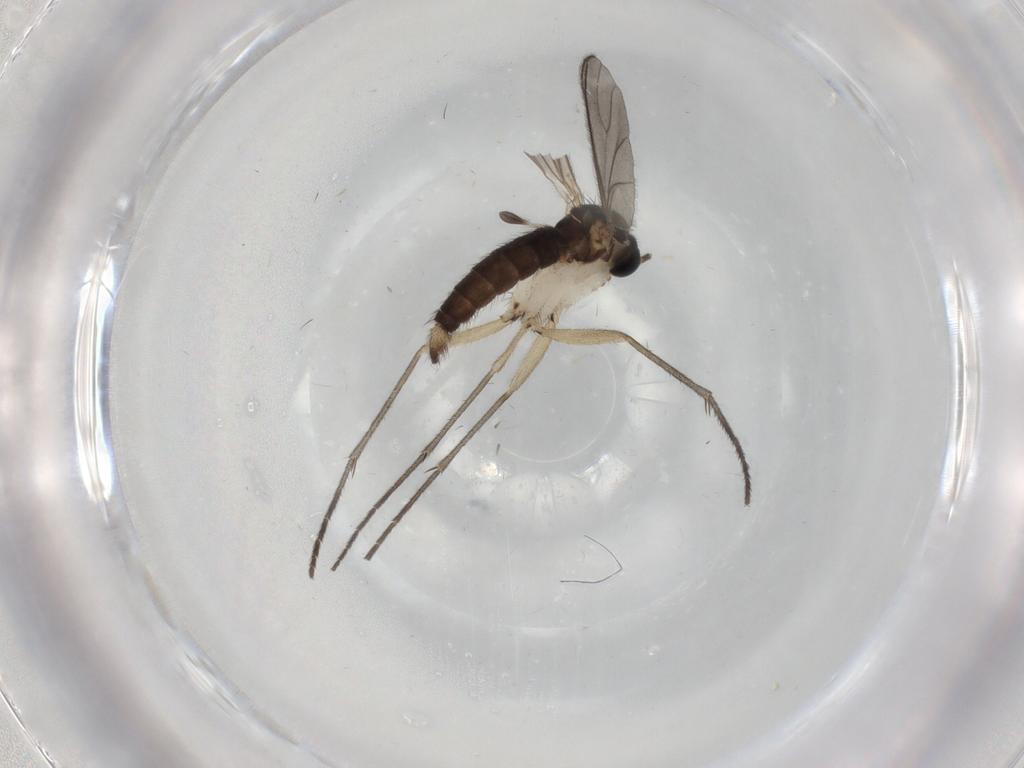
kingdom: Animalia
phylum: Arthropoda
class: Insecta
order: Diptera
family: Sciaridae
